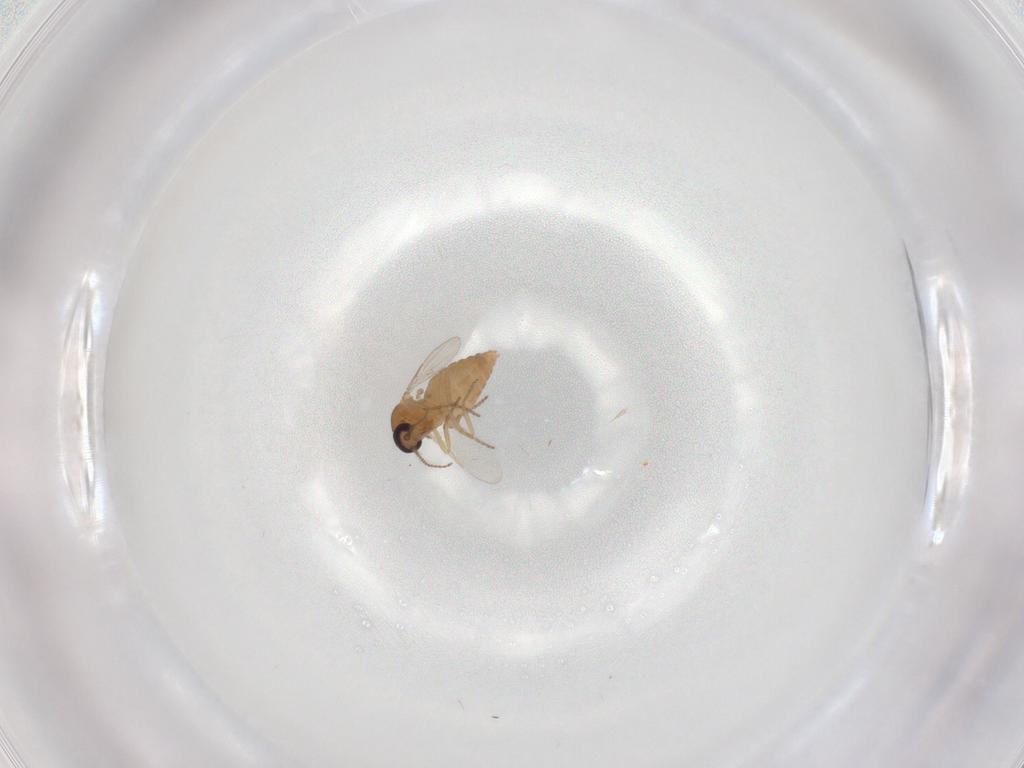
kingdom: Animalia
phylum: Arthropoda
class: Insecta
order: Diptera
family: Ceratopogonidae
